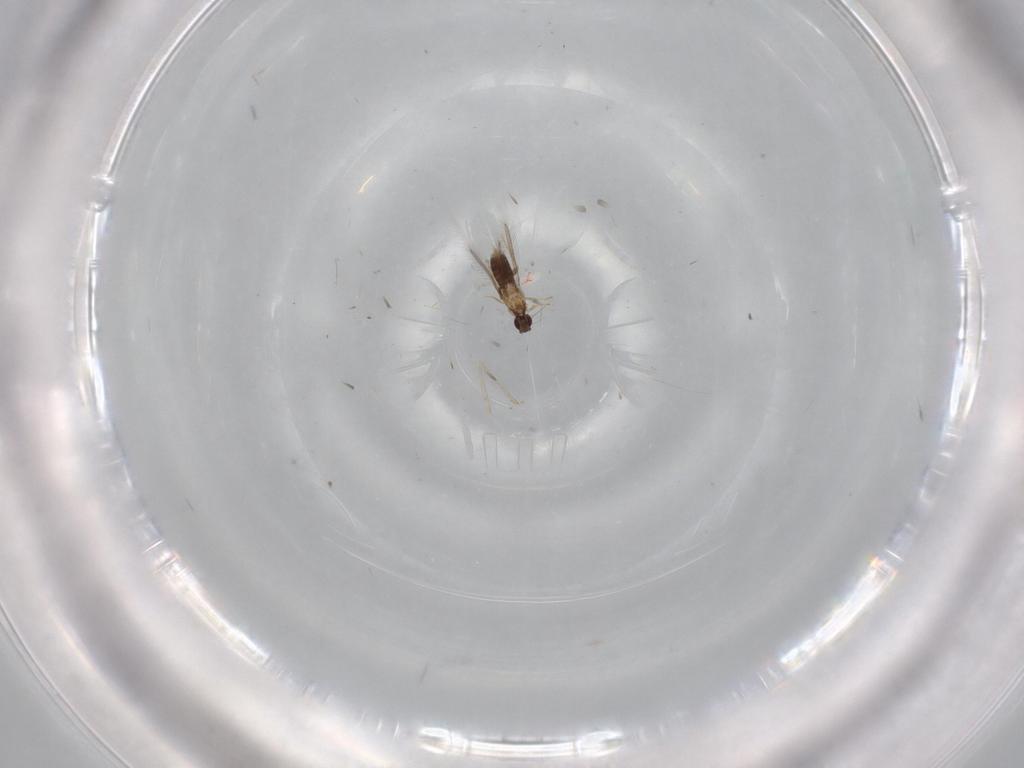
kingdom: Animalia
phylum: Arthropoda
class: Insecta
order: Hymenoptera
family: Mymaridae
